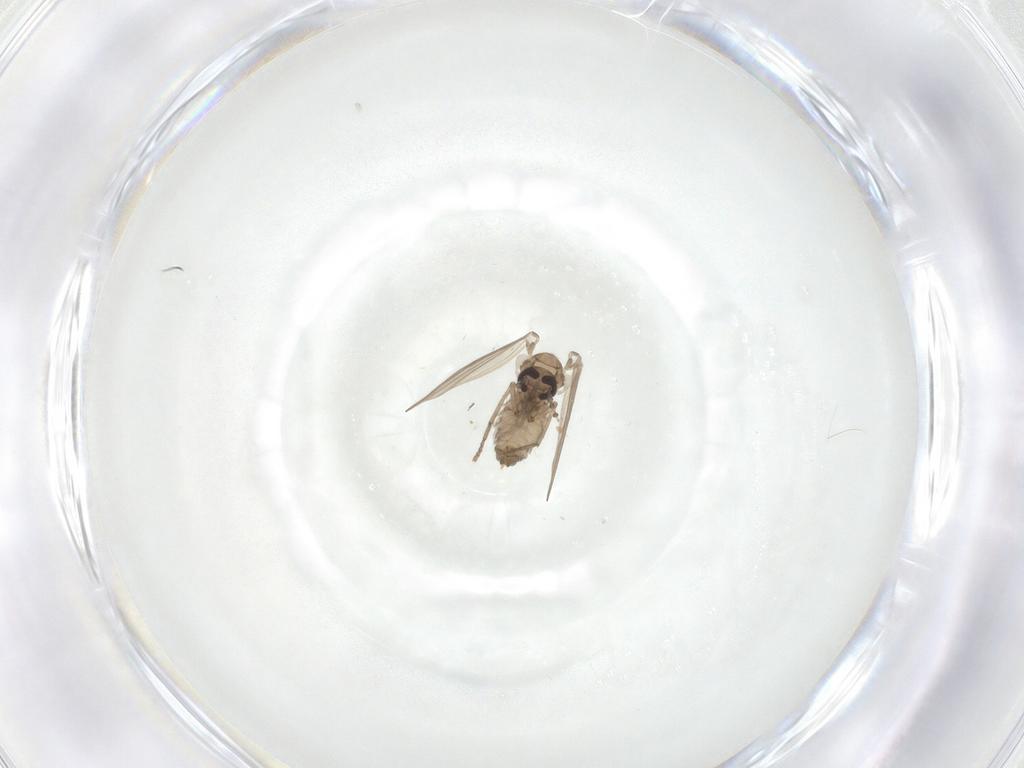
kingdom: Animalia
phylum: Arthropoda
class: Insecta
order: Diptera
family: Psychodidae
